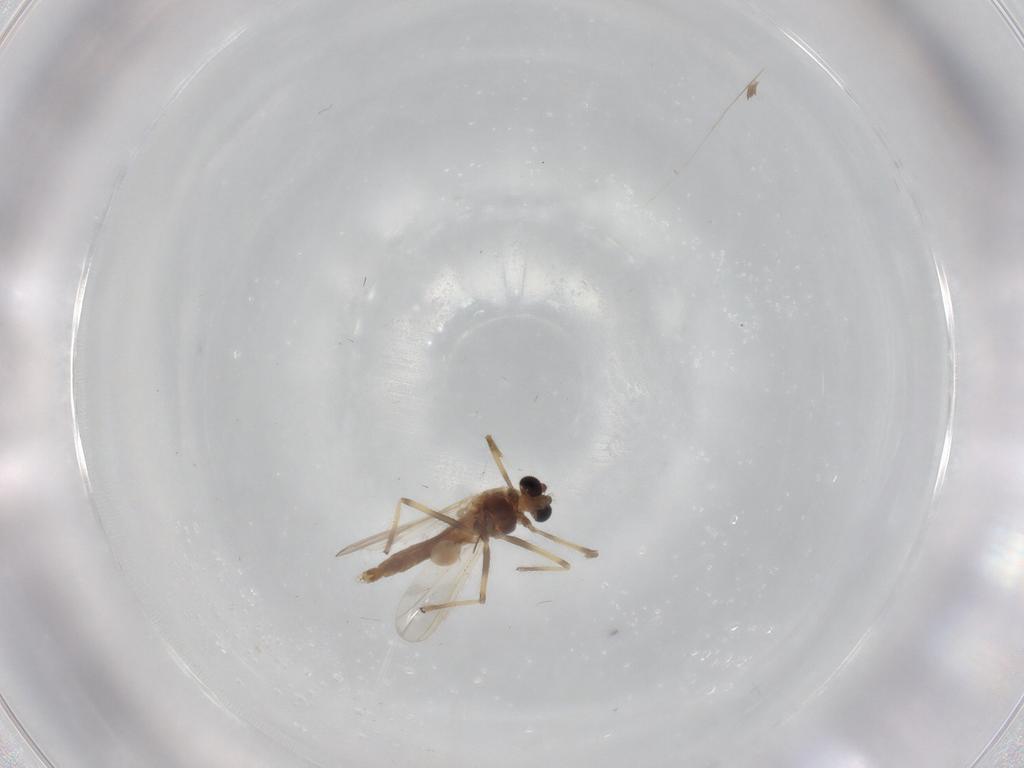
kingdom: Animalia
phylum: Arthropoda
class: Insecta
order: Diptera
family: Chironomidae
